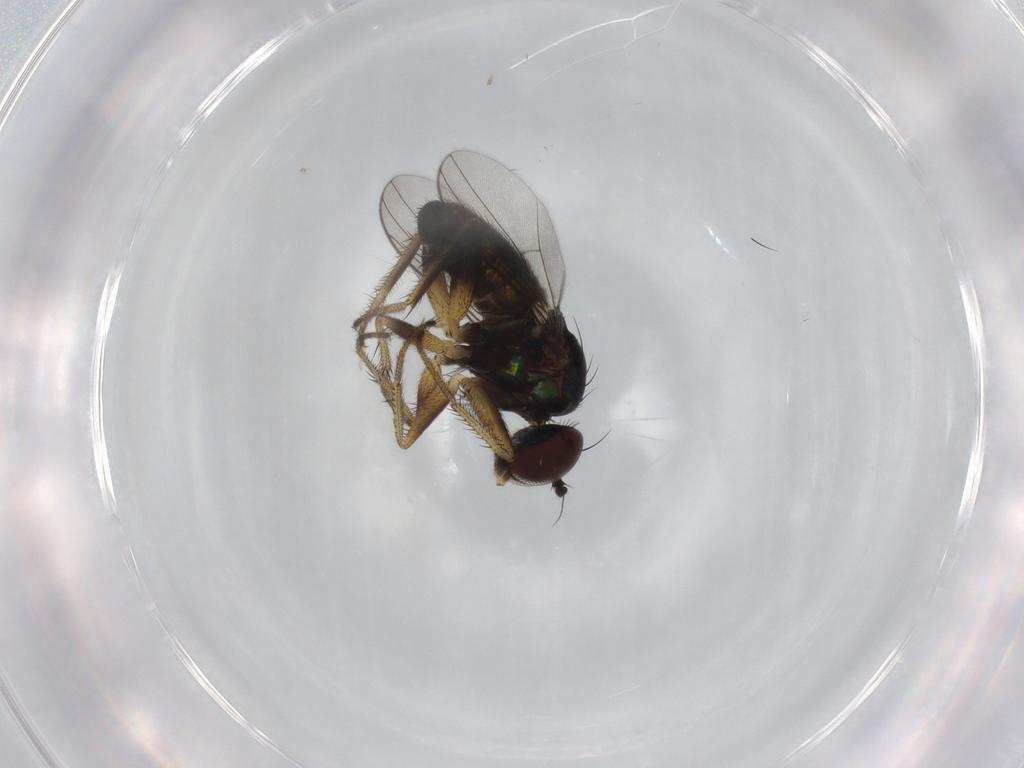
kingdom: Animalia
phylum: Arthropoda
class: Insecta
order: Diptera
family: Dolichopodidae
